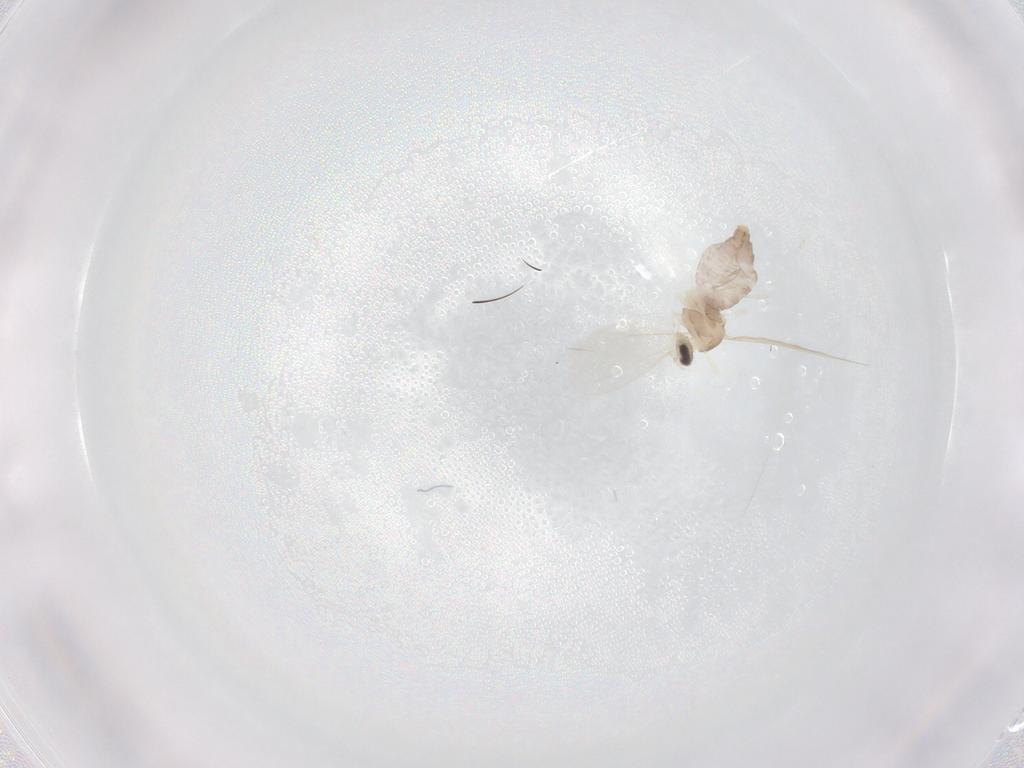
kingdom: Animalia
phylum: Arthropoda
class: Insecta
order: Diptera
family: Cecidomyiidae
